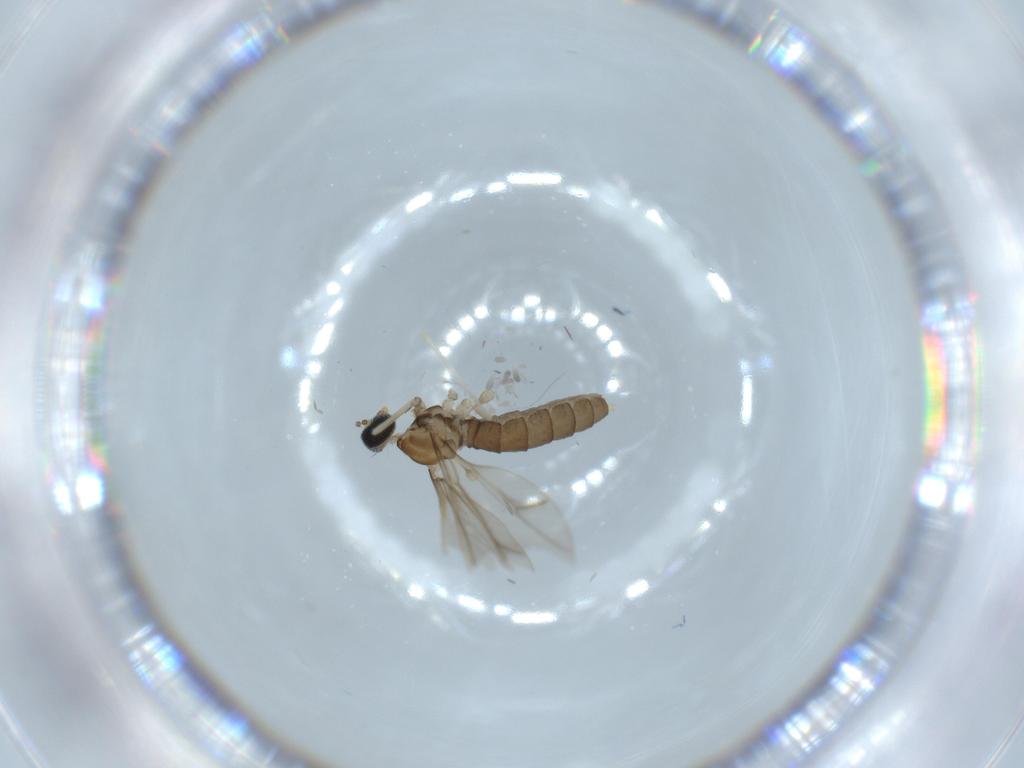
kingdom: Animalia
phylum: Arthropoda
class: Insecta
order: Diptera
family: Cecidomyiidae
